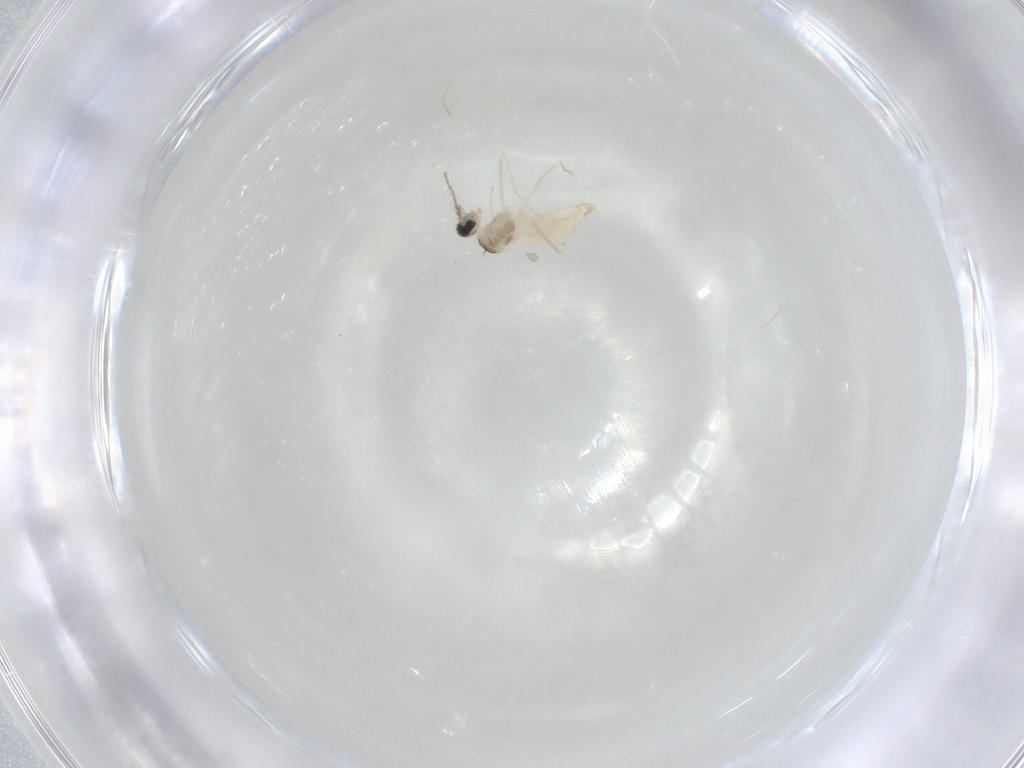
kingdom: Animalia
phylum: Arthropoda
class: Insecta
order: Diptera
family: Cecidomyiidae
